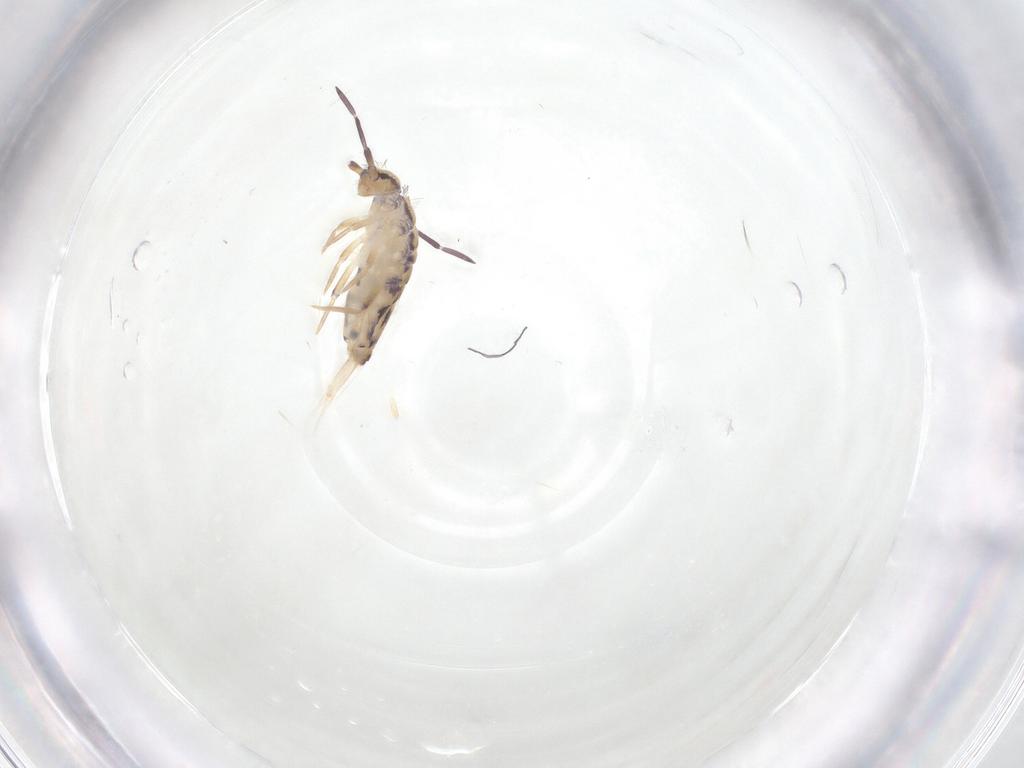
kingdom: Animalia
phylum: Arthropoda
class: Collembola
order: Entomobryomorpha
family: Entomobryidae
